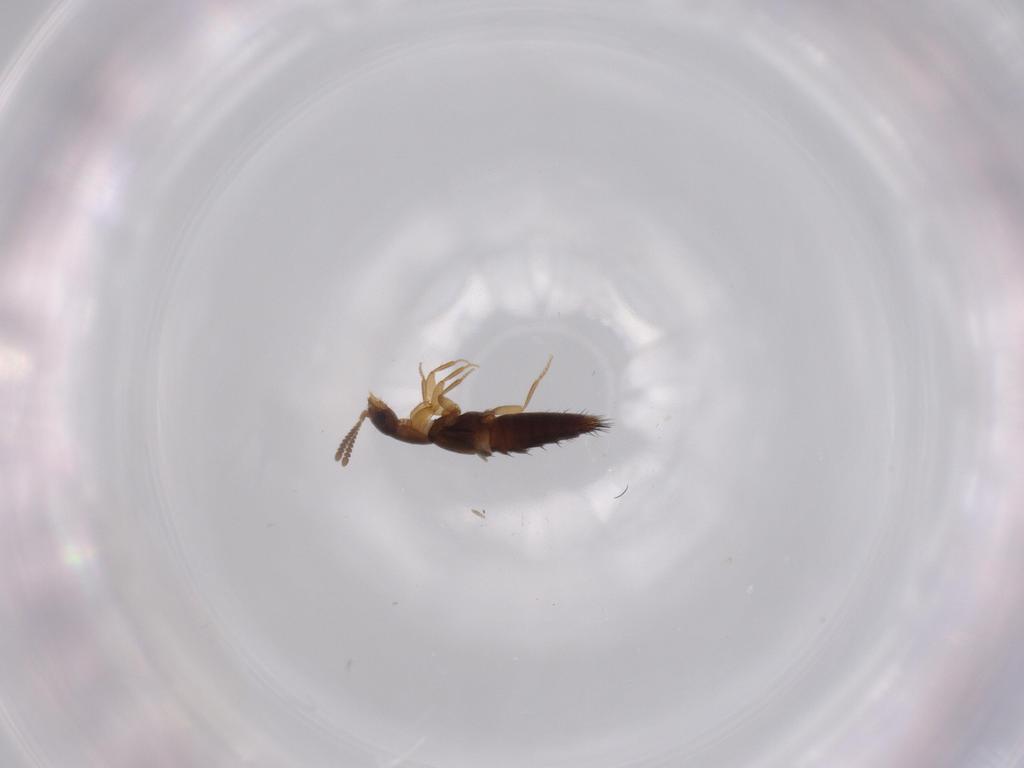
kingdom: Animalia
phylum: Arthropoda
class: Insecta
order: Coleoptera
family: Staphylinidae
